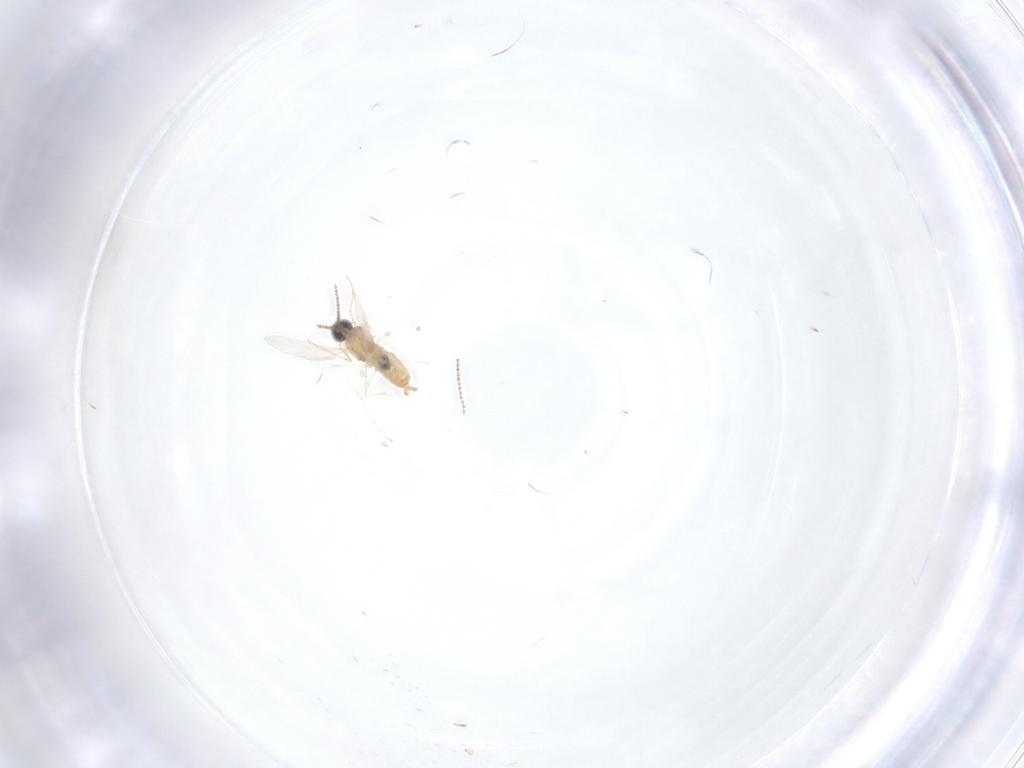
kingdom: Animalia
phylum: Arthropoda
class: Insecta
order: Diptera
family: Cecidomyiidae
